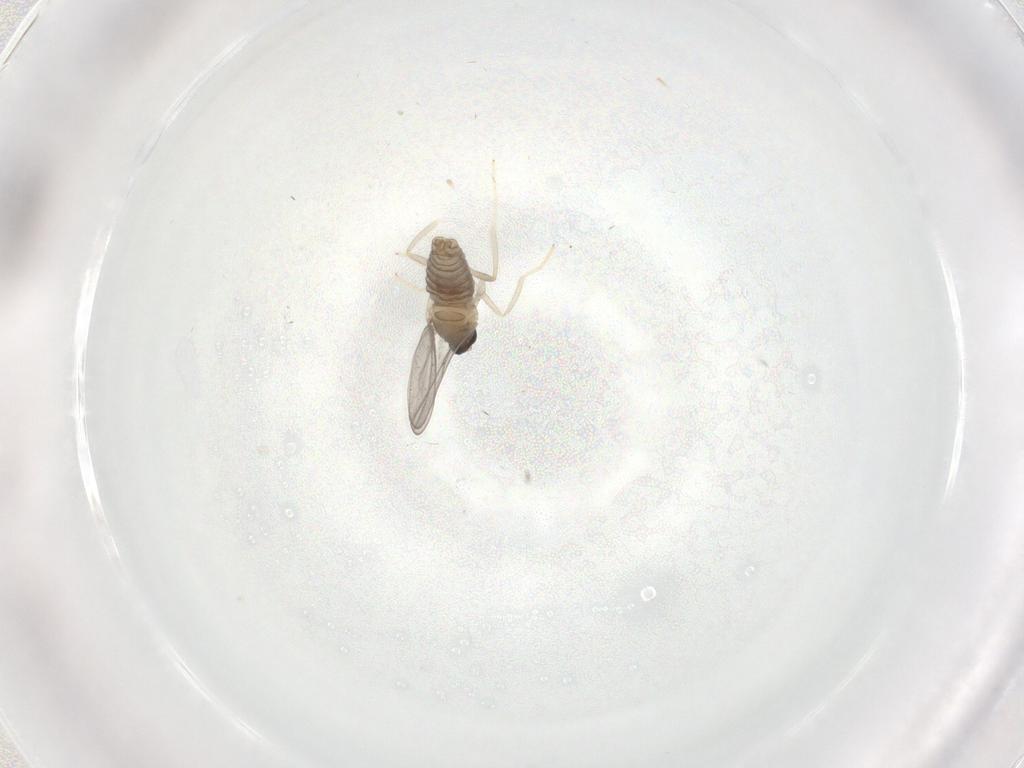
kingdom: Animalia
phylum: Arthropoda
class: Insecta
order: Diptera
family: Cecidomyiidae
